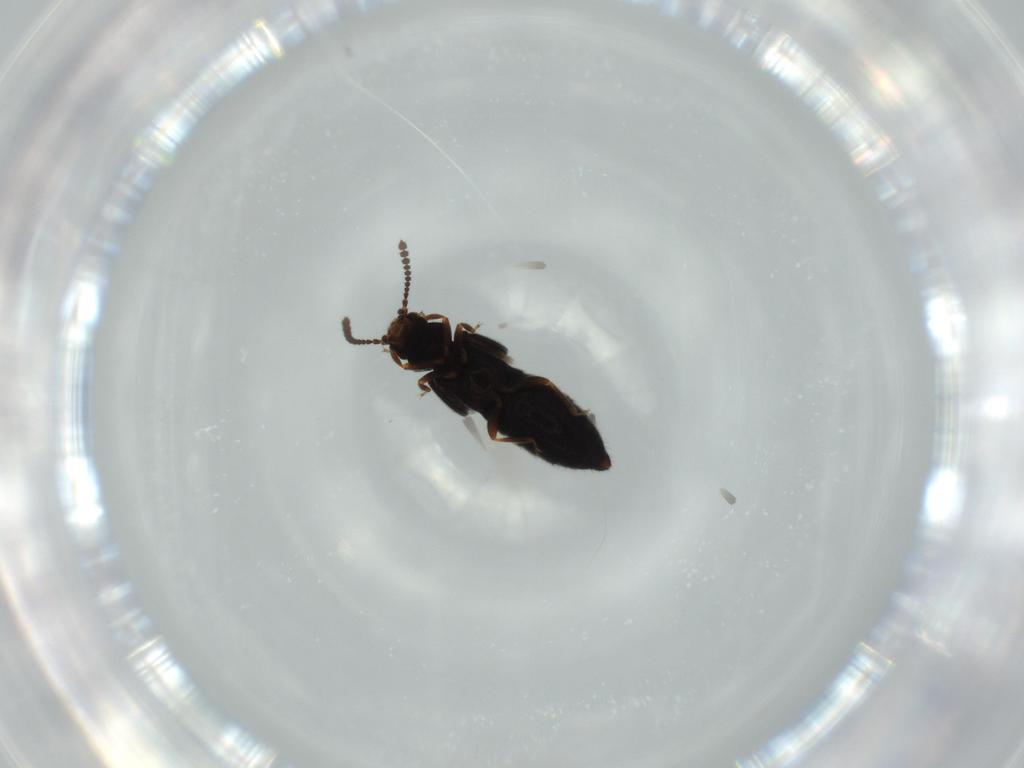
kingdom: Animalia
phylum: Arthropoda
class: Insecta
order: Coleoptera
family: Staphylinidae
